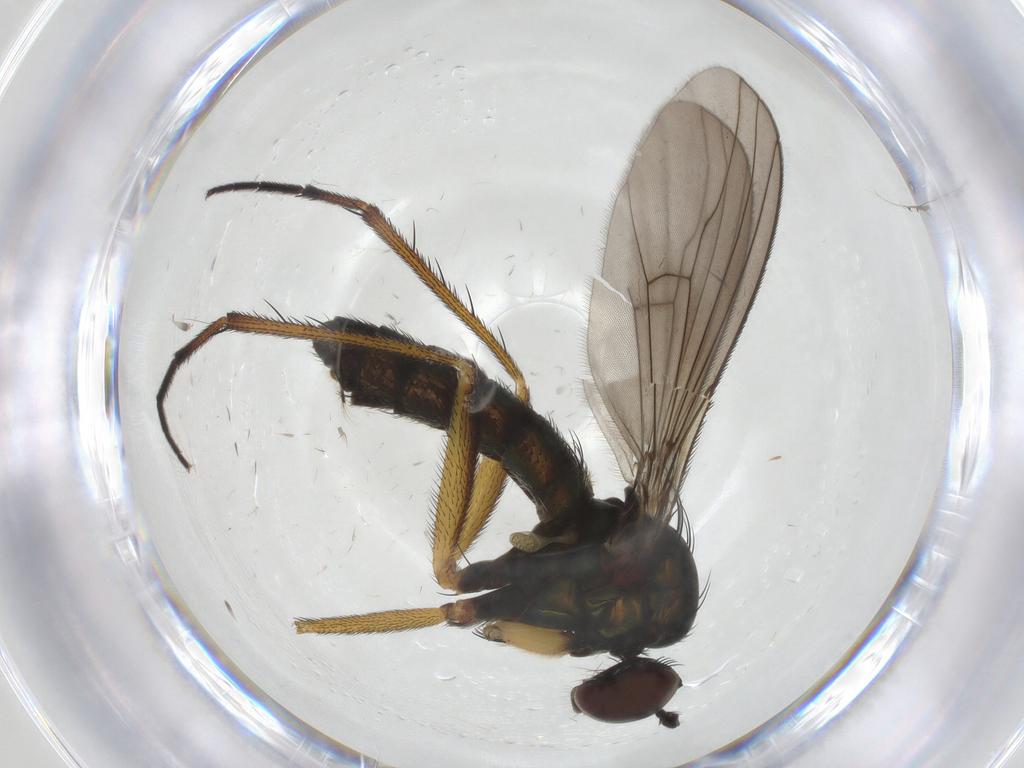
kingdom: Animalia
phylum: Arthropoda
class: Insecta
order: Diptera
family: Dolichopodidae
